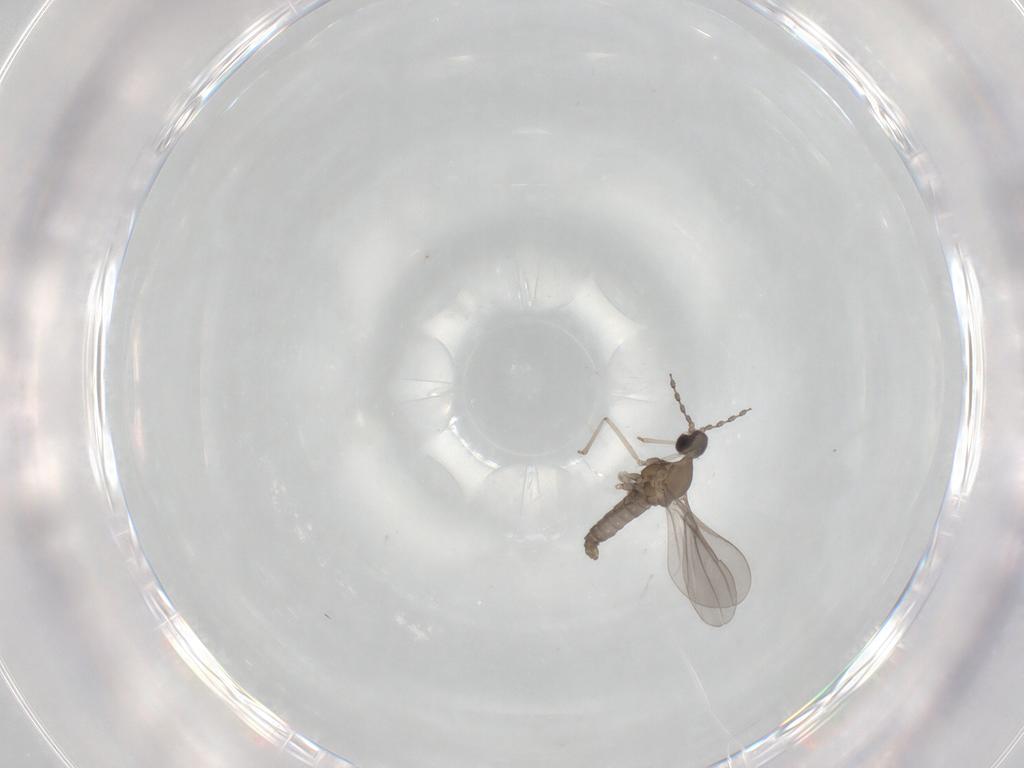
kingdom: Animalia
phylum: Arthropoda
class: Insecta
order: Diptera
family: Cecidomyiidae
